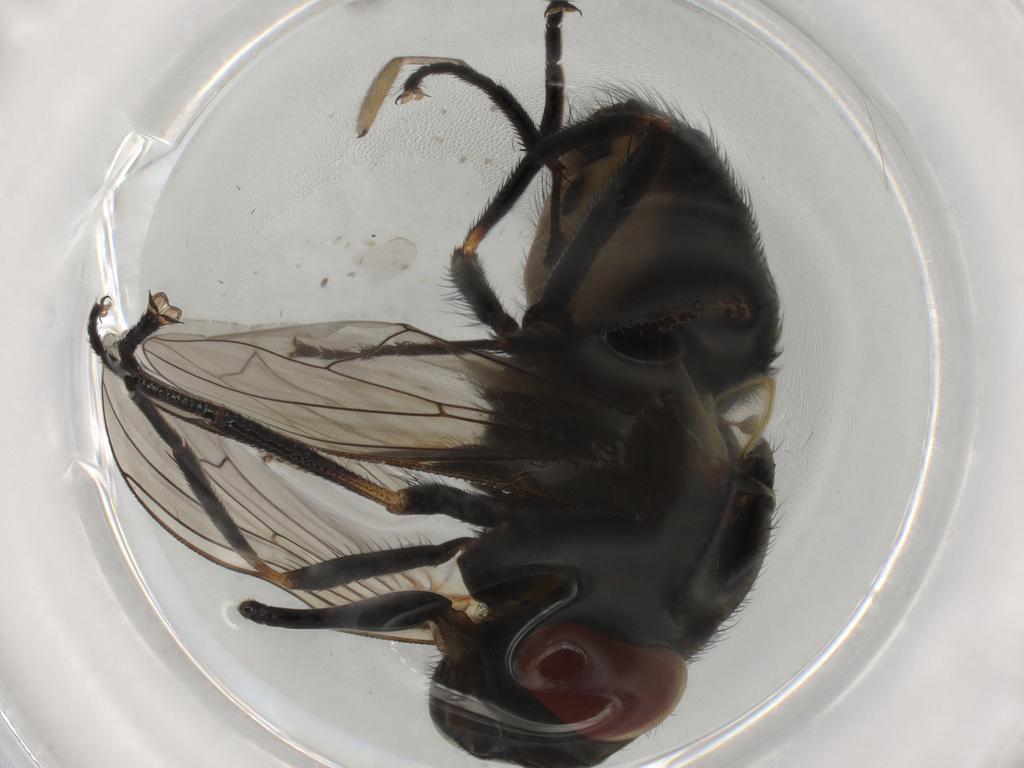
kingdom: Animalia
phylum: Arthropoda
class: Insecta
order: Diptera
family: Muscidae
